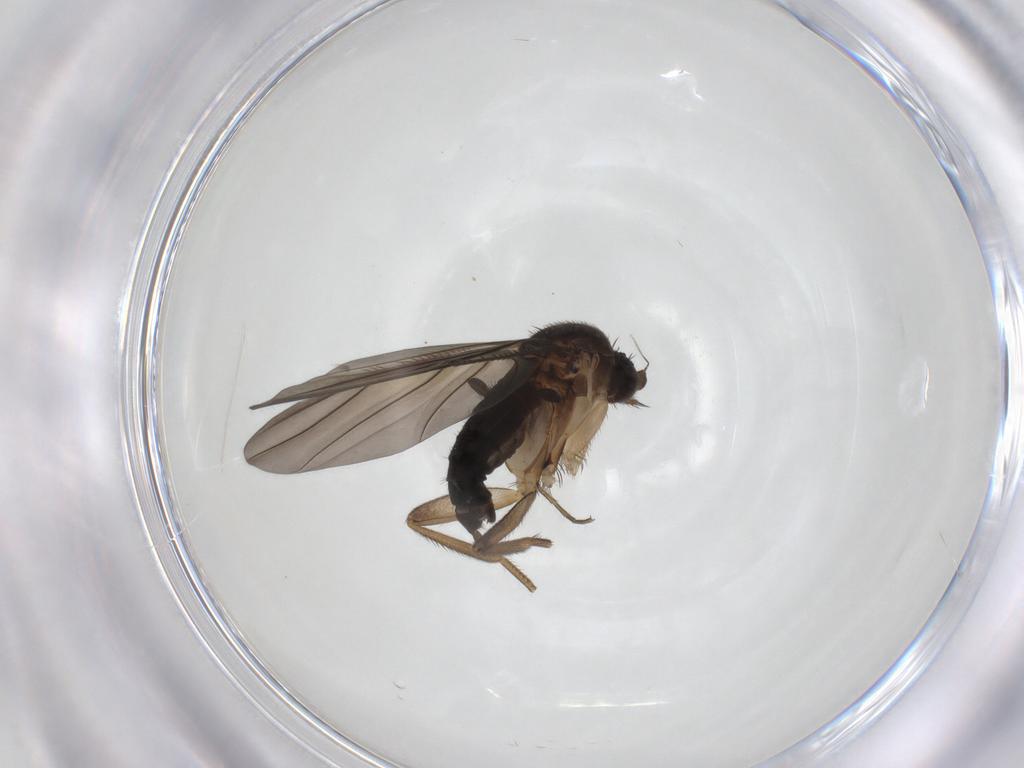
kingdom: Animalia
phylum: Arthropoda
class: Insecta
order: Diptera
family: Phoridae
